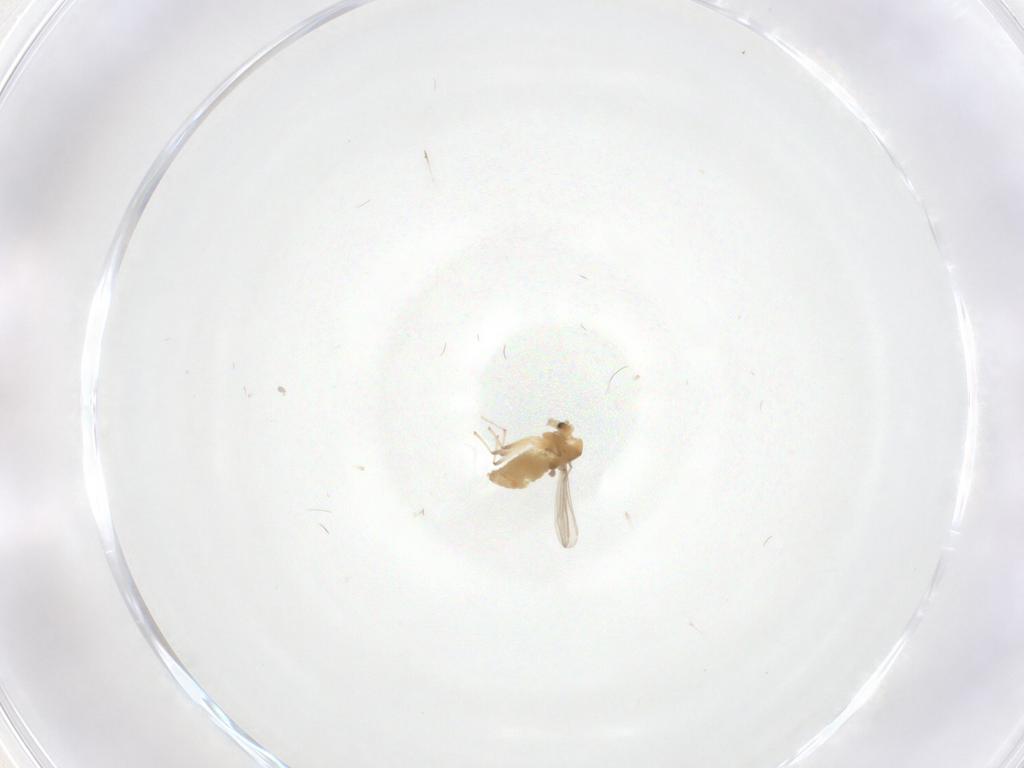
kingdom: Animalia
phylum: Arthropoda
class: Insecta
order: Diptera
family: Chironomidae
